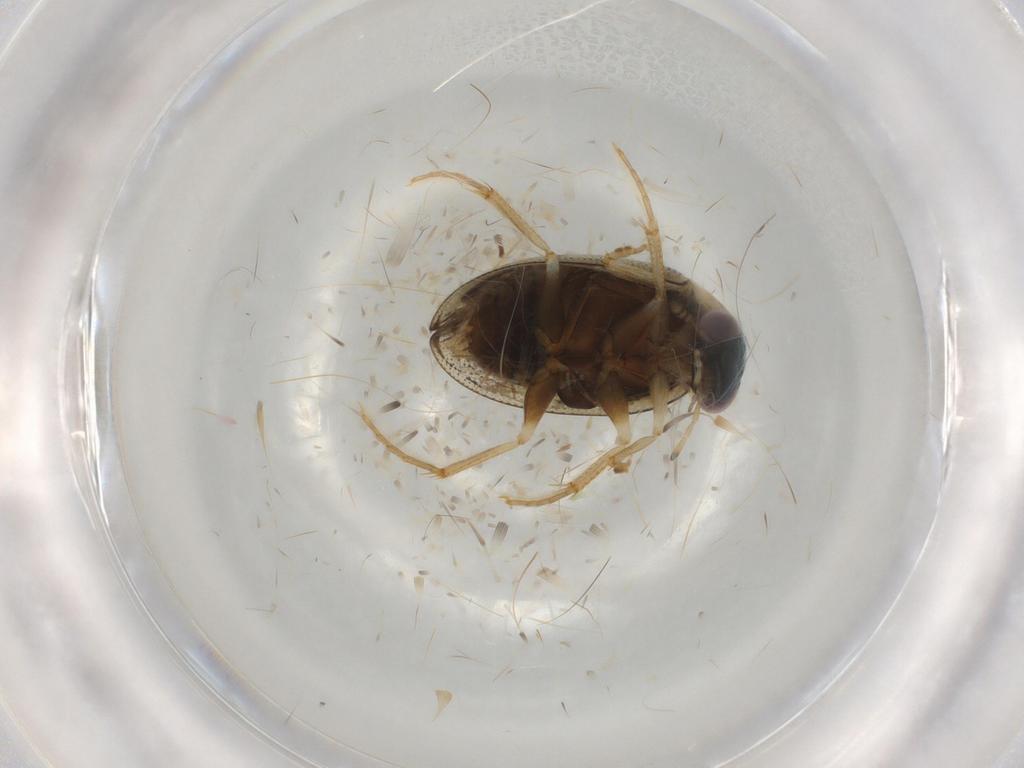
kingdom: Animalia
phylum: Arthropoda
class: Insecta
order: Coleoptera
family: Hydrophilidae
